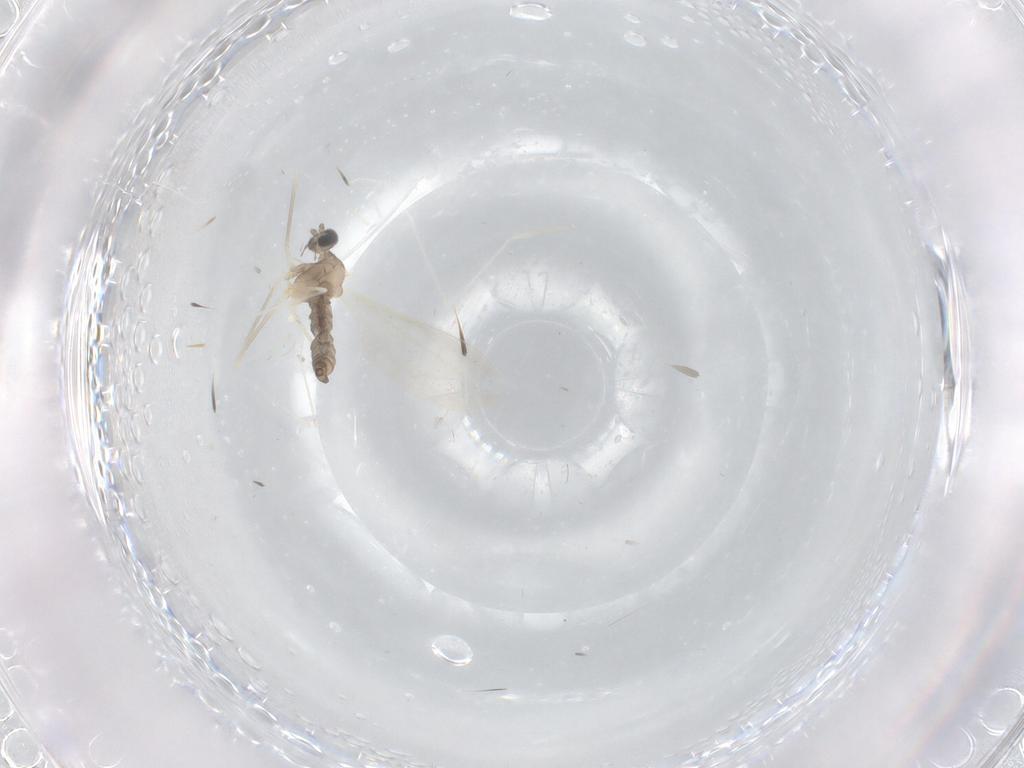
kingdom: Animalia
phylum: Arthropoda
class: Insecta
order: Diptera
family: Cecidomyiidae
